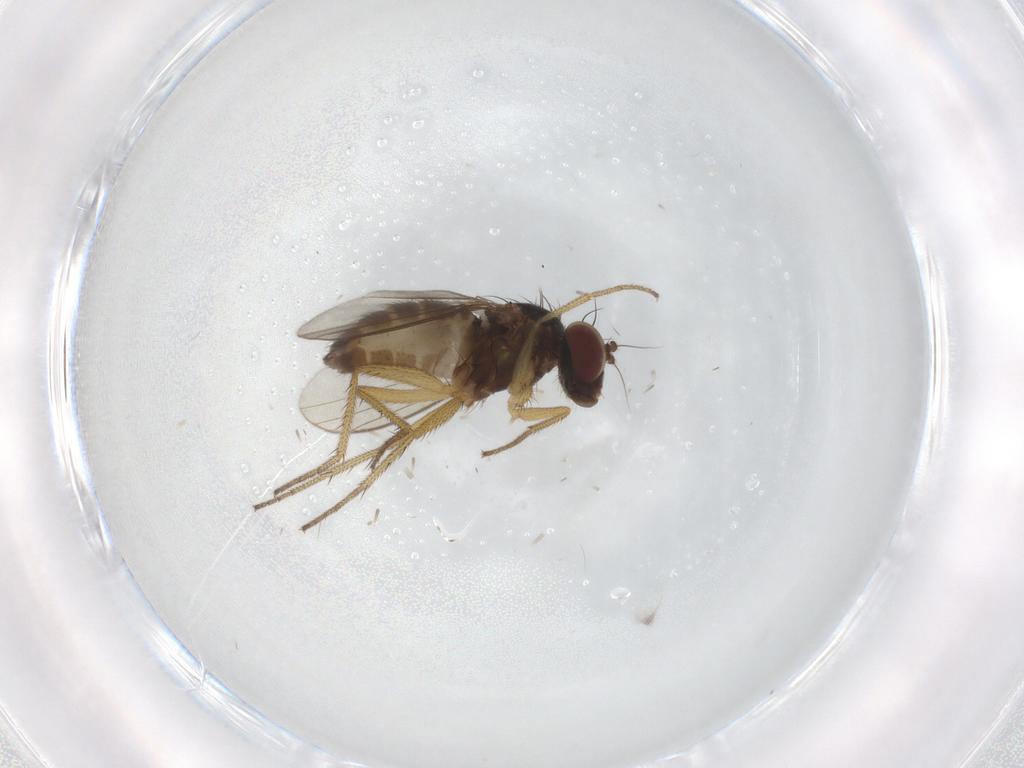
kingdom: Animalia
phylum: Arthropoda
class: Insecta
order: Diptera
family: Dolichopodidae
